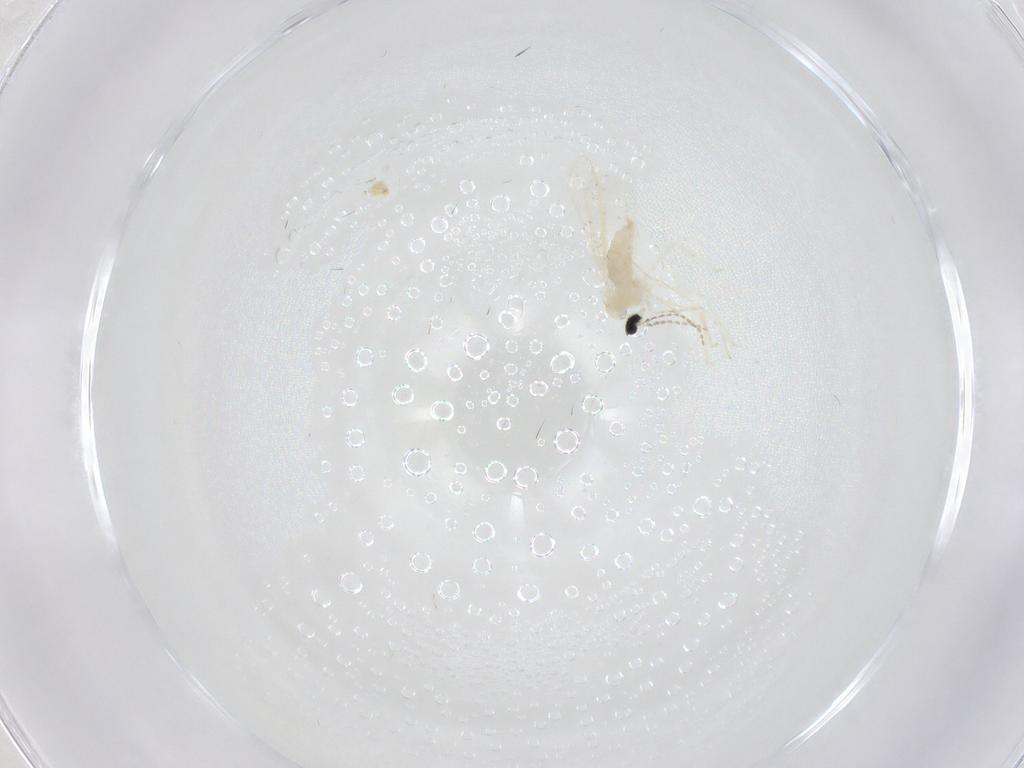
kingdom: Animalia
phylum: Arthropoda
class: Insecta
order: Diptera
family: Cecidomyiidae
